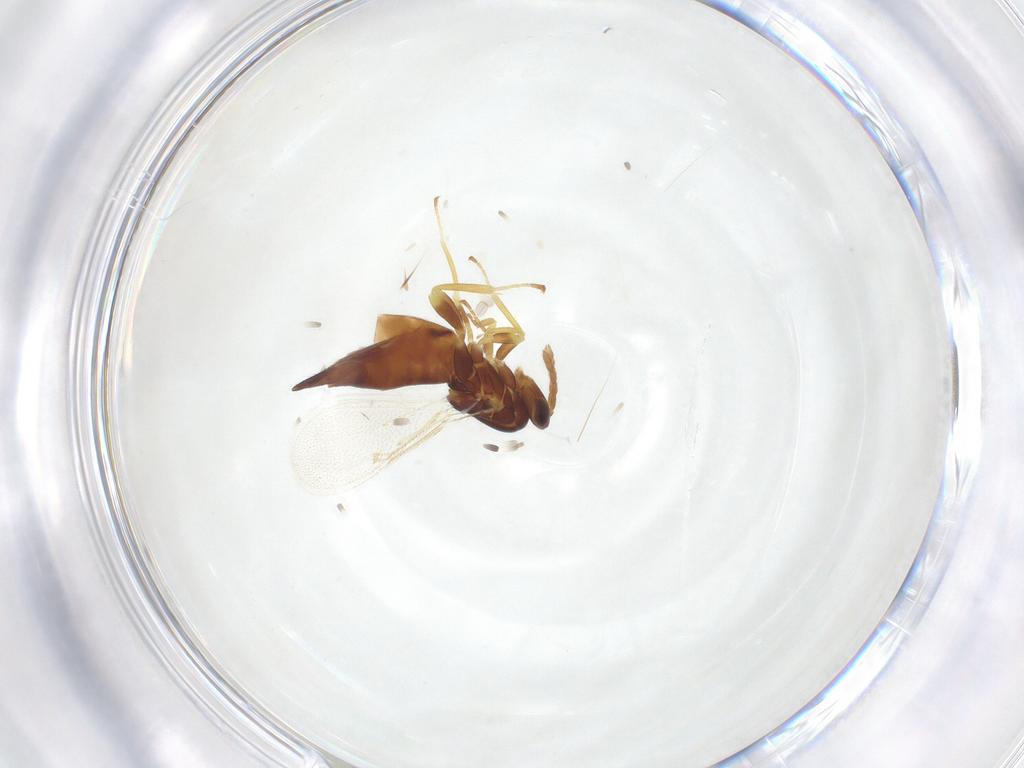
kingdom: Animalia
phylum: Arthropoda
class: Insecta
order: Hymenoptera
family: Eulophidae
